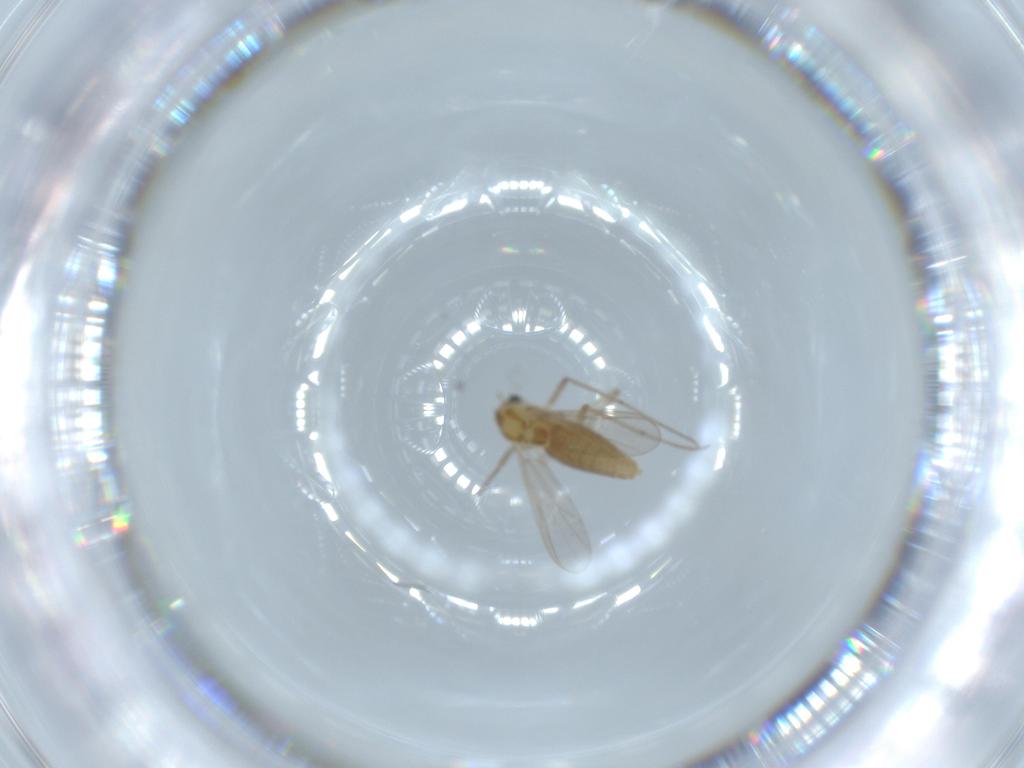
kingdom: Animalia
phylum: Arthropoda
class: Insecta
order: Diptera
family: Chironomidae
